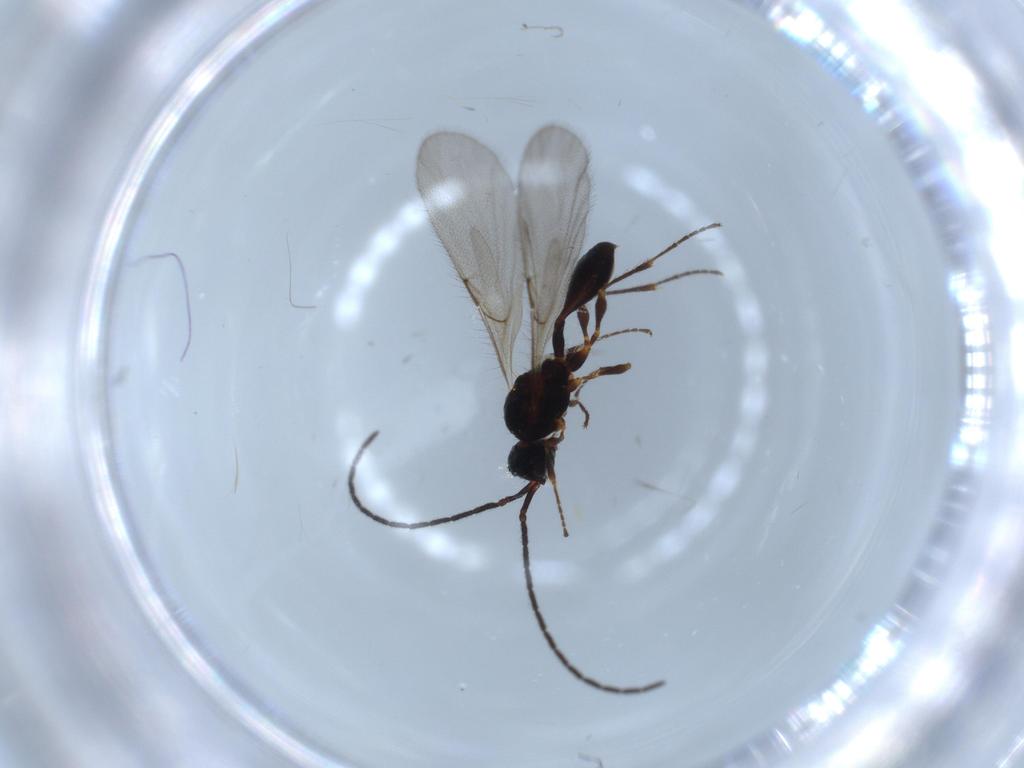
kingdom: Animalia
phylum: Arthropoda
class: Insecta
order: Hymenoptera
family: Diapriidae
